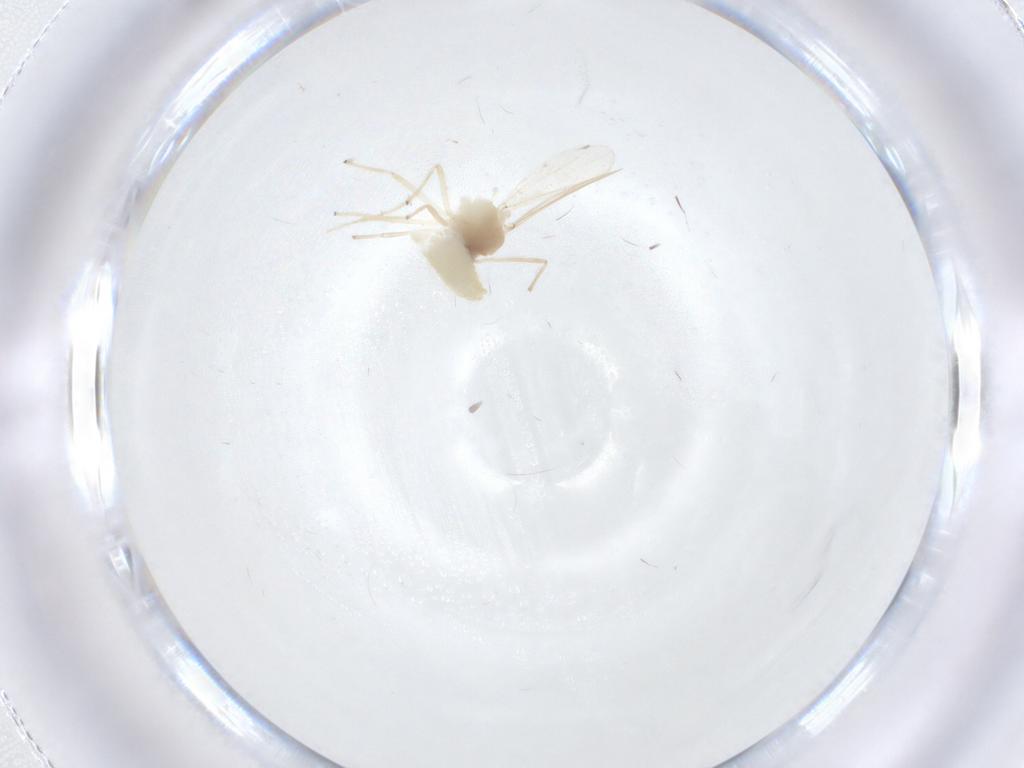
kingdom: Animalia
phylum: Arthropoda
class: Insecta
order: Diptera
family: Chironomidae
